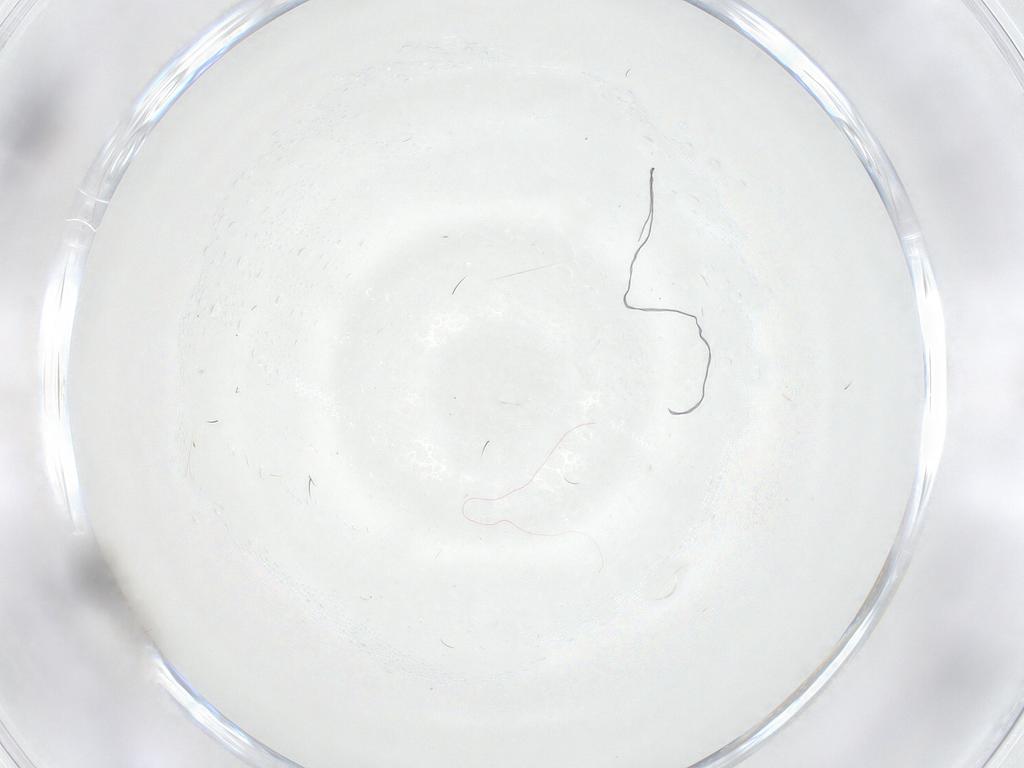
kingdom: Animalia
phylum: Arthropoda
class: Insecta
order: Diptera
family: Sciaridae
